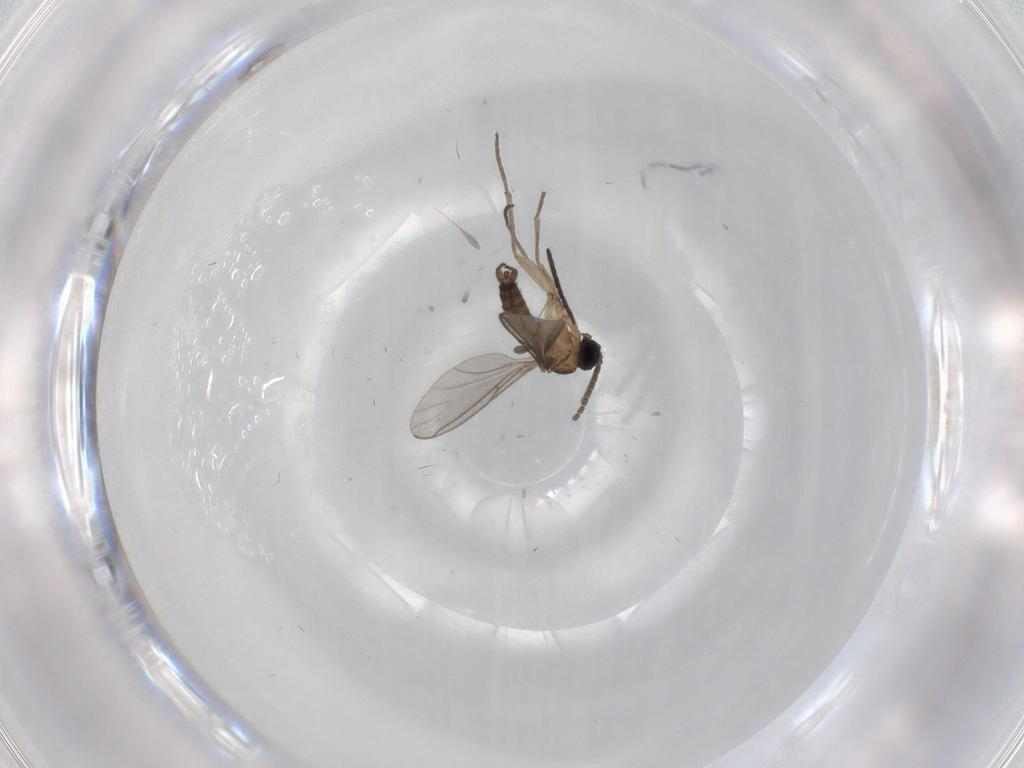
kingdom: Animalia
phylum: Arthropoda
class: Insecta
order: Diptera
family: Sciaridae
